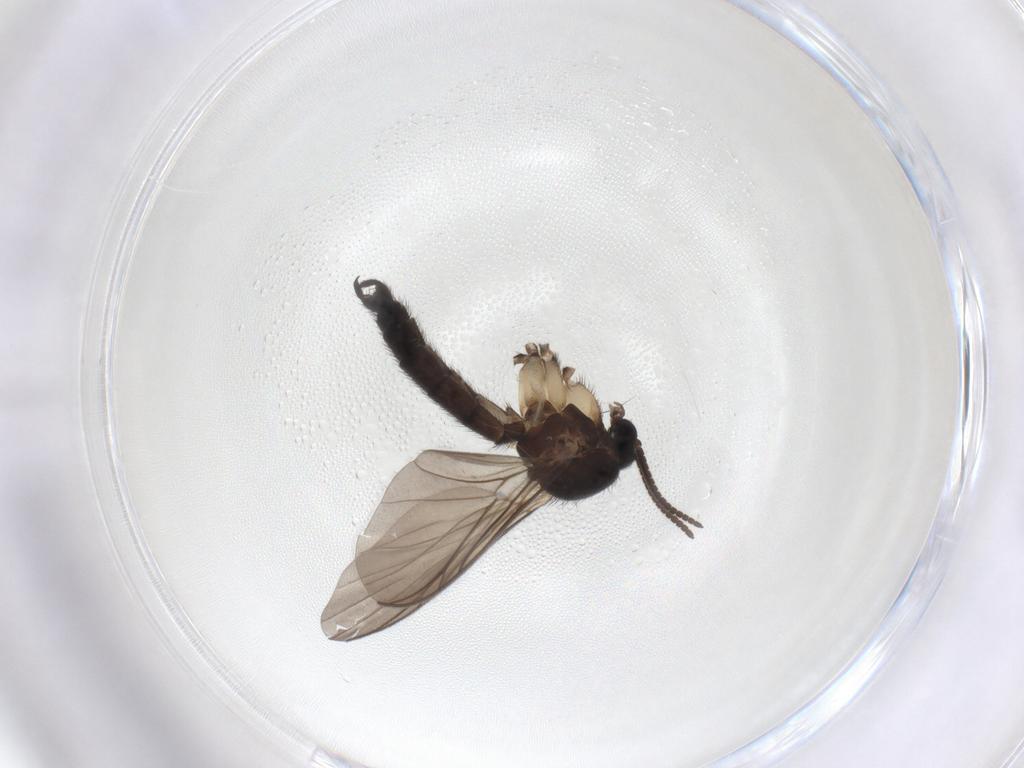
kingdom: Animalia
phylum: Arthropoda
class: Insecta
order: Diptera
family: Keroplatidae
